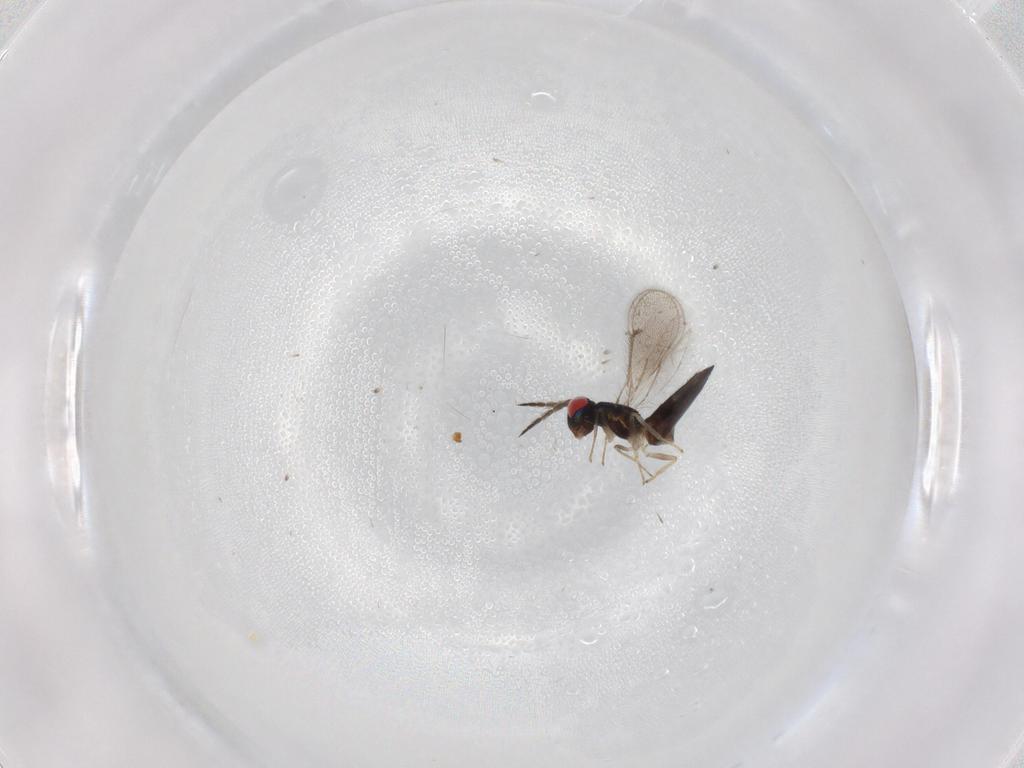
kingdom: Animalia
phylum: Arthropoda
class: Insecta
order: Hymenoptera
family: Eulophidae
